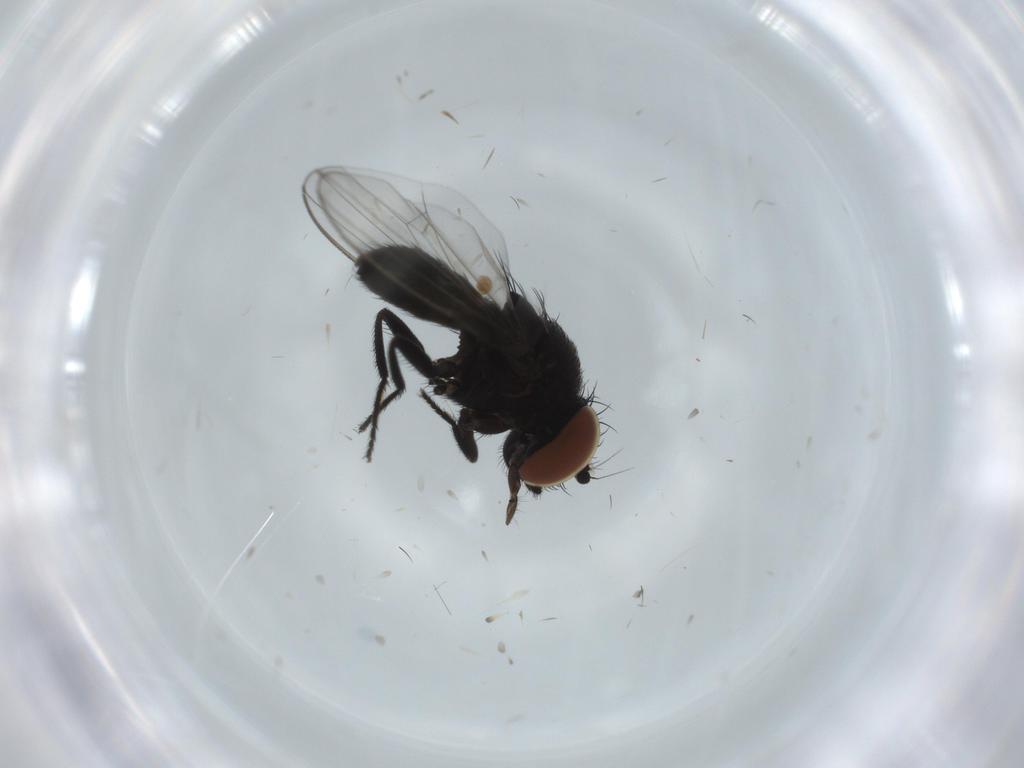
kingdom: Animalia
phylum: Arthropoda
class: Insecta
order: Diptera
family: Milichiidae
